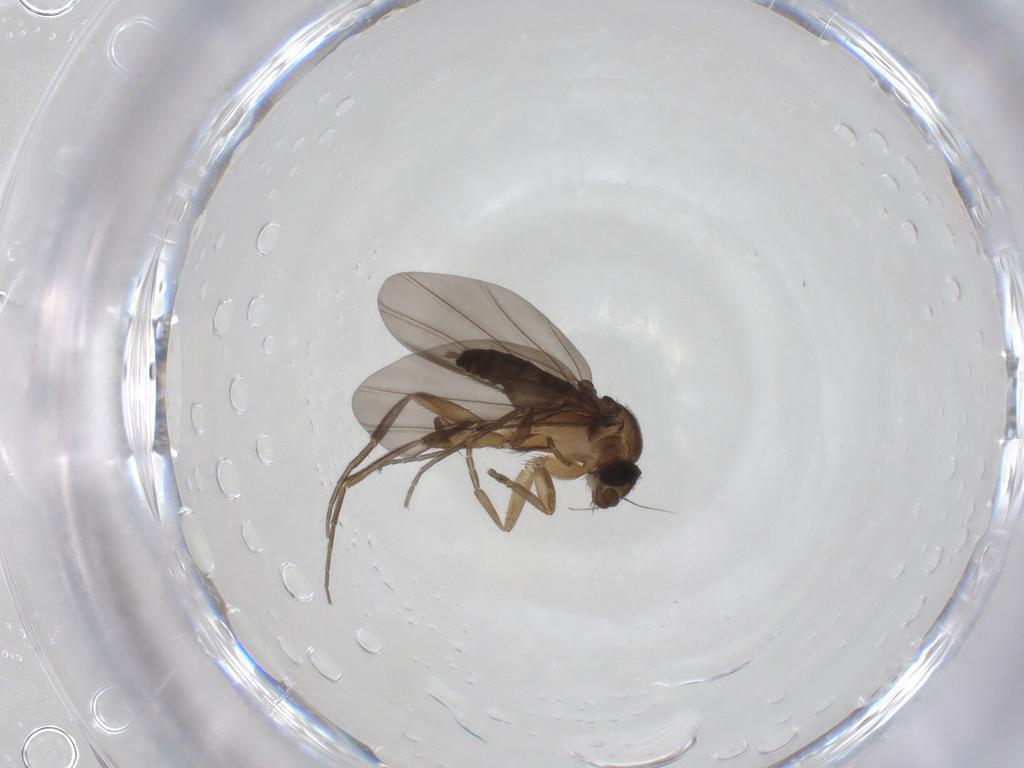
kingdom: Animalia
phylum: Arthropoda
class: Insecta
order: Diptera
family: Phoridae
